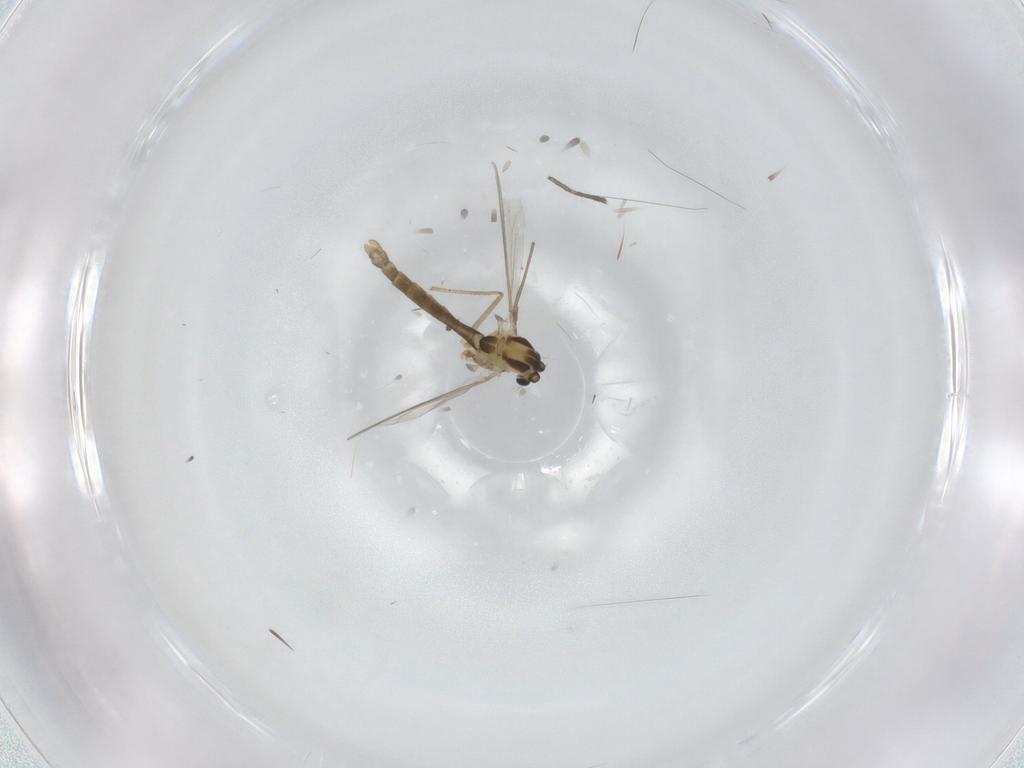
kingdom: Animalia
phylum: Arthropoda
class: Insecta
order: Diptera
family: Chironomidae
